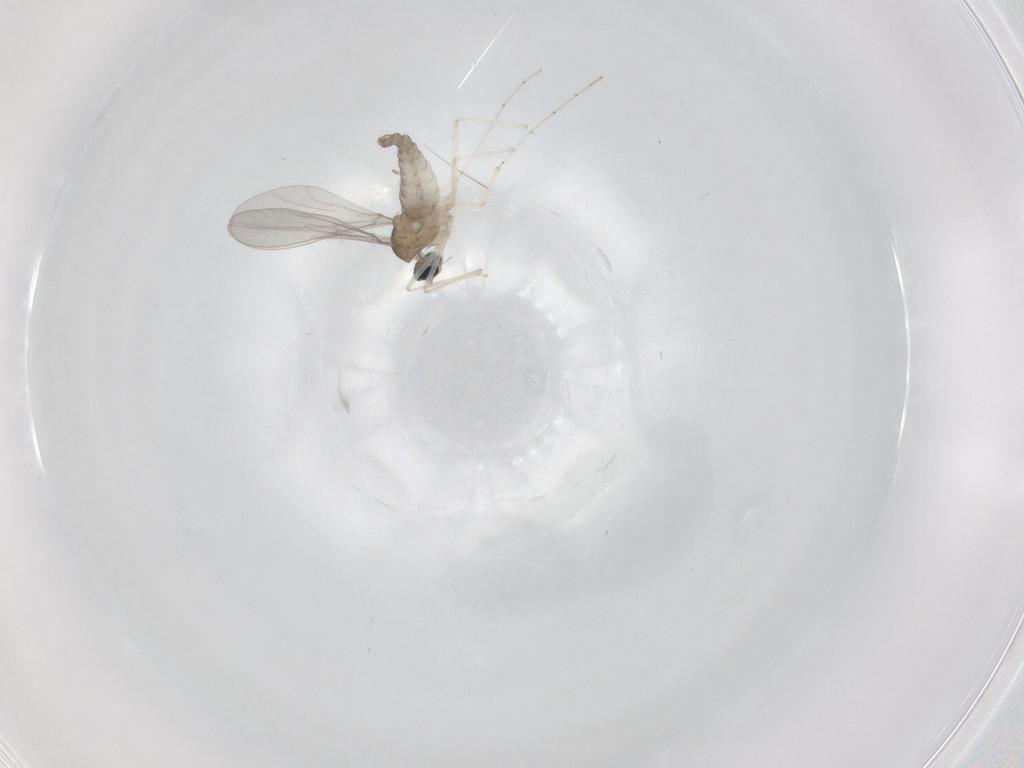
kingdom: Animalia
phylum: Arthropoda
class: Insecta
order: Diptera
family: Cecidomyiidae
